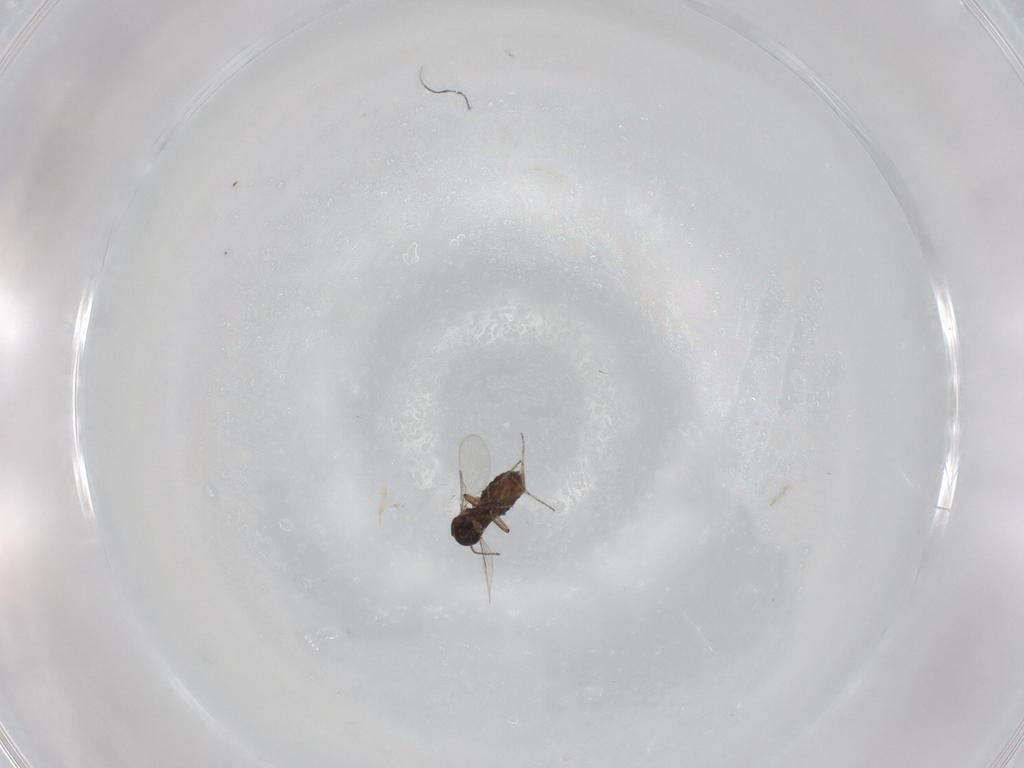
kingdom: Animalia
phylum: Arthropoda
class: Insecta
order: Diptera
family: Ceratopogonidae
